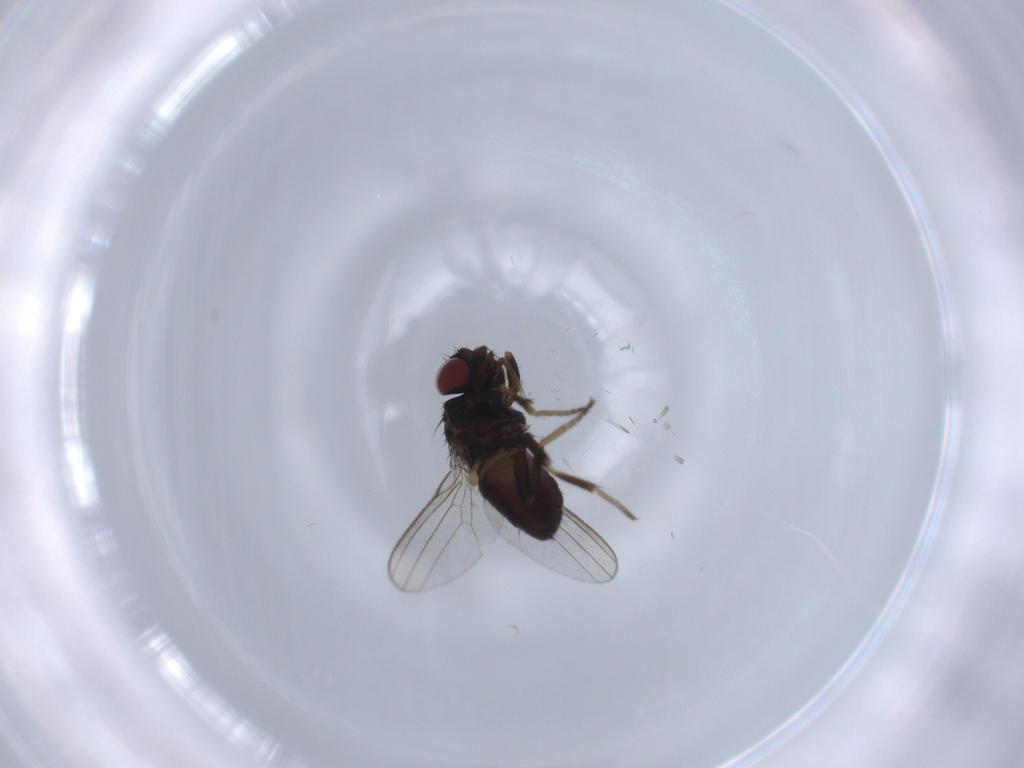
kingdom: Animalia
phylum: Arthropoda
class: Insecta
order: Diptera
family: Milichiidae
